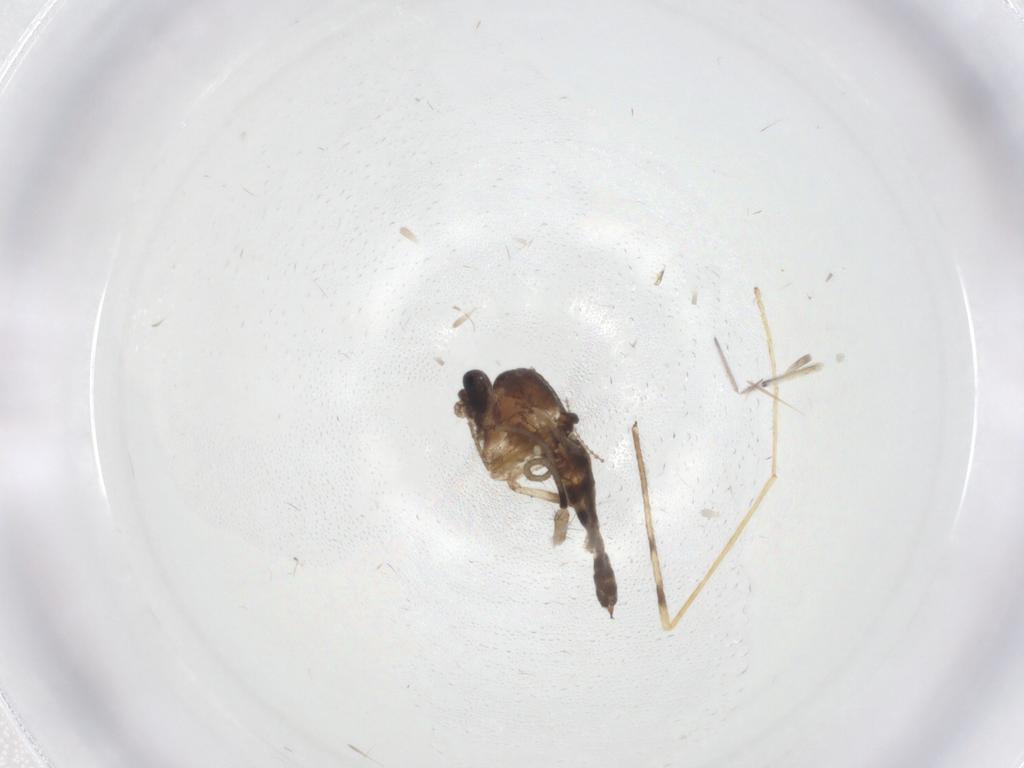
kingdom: Animalia
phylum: Arthropoda
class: Insecta
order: Diptera
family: Ceratopogonidae
